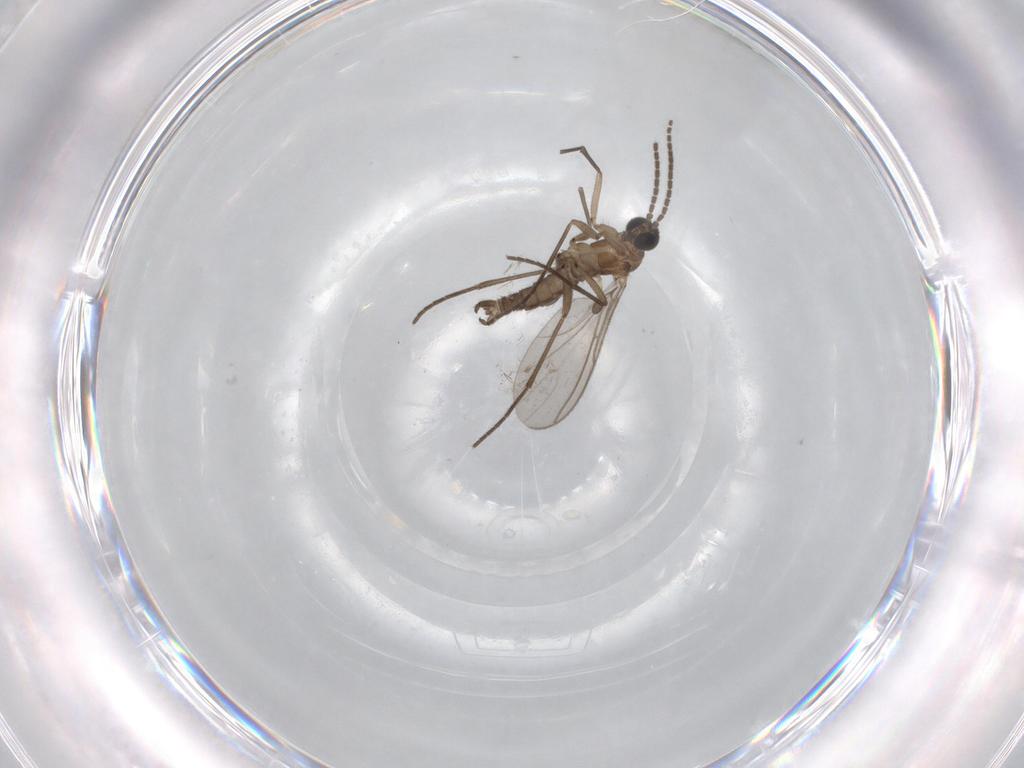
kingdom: Animalia
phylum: Arthropoda
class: Insecta
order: Diptera
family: Sciaridae
